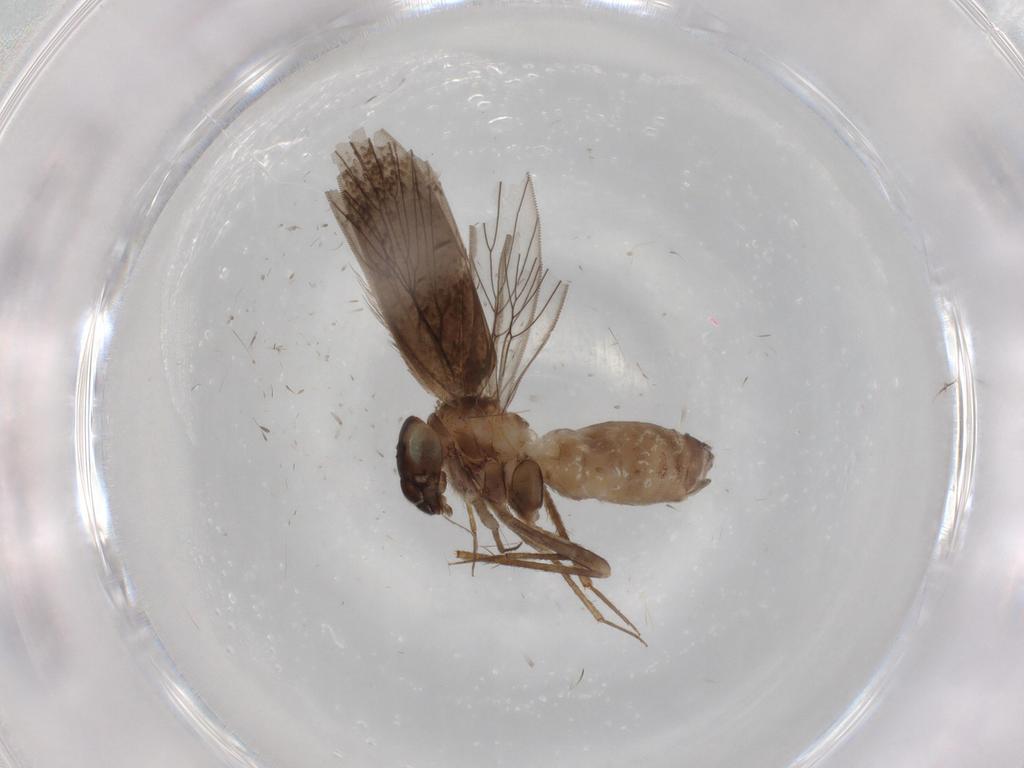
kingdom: Animalia
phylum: Arthropoda
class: Insecta
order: Psocodea
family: Lepidopsocidae
